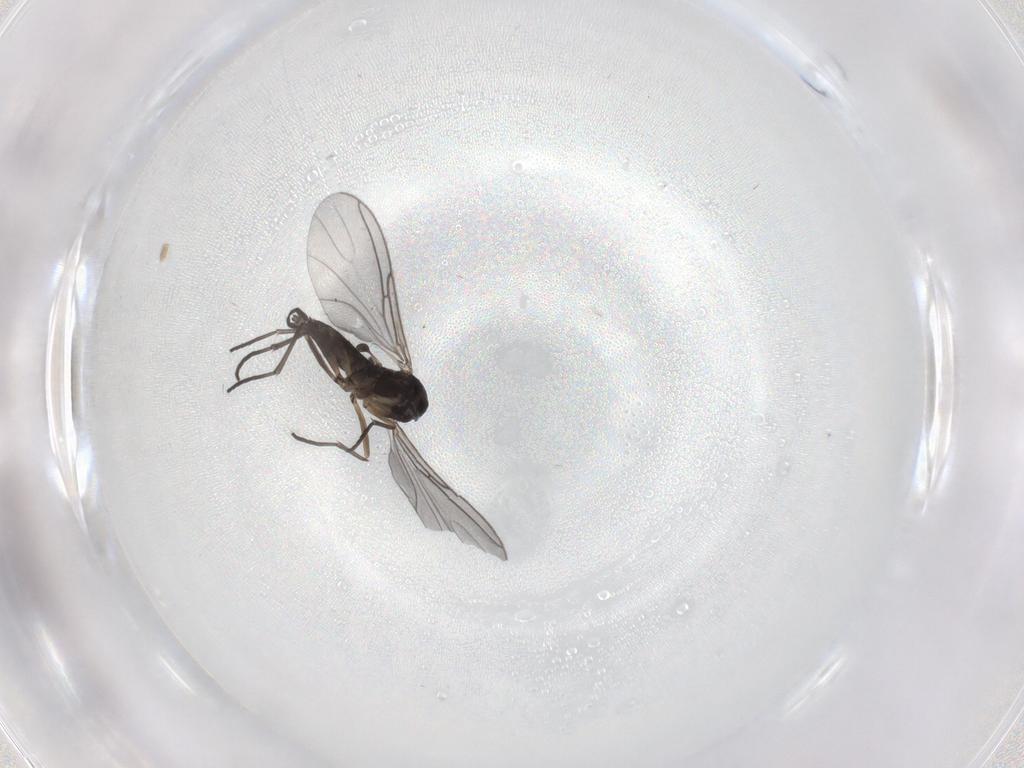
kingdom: Animalia
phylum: Arthropoda
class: Insecta
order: Diptera
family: Sciaridae
